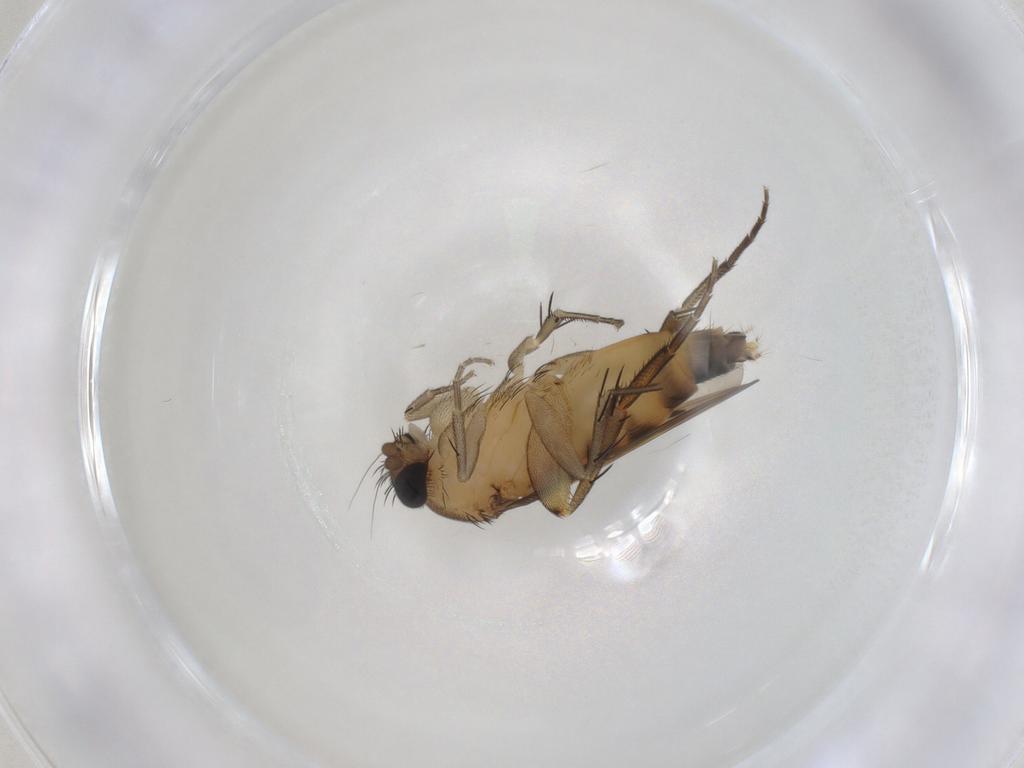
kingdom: Animalia
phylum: Arthropoda
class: Insecta
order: Diptera
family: Phoridae
